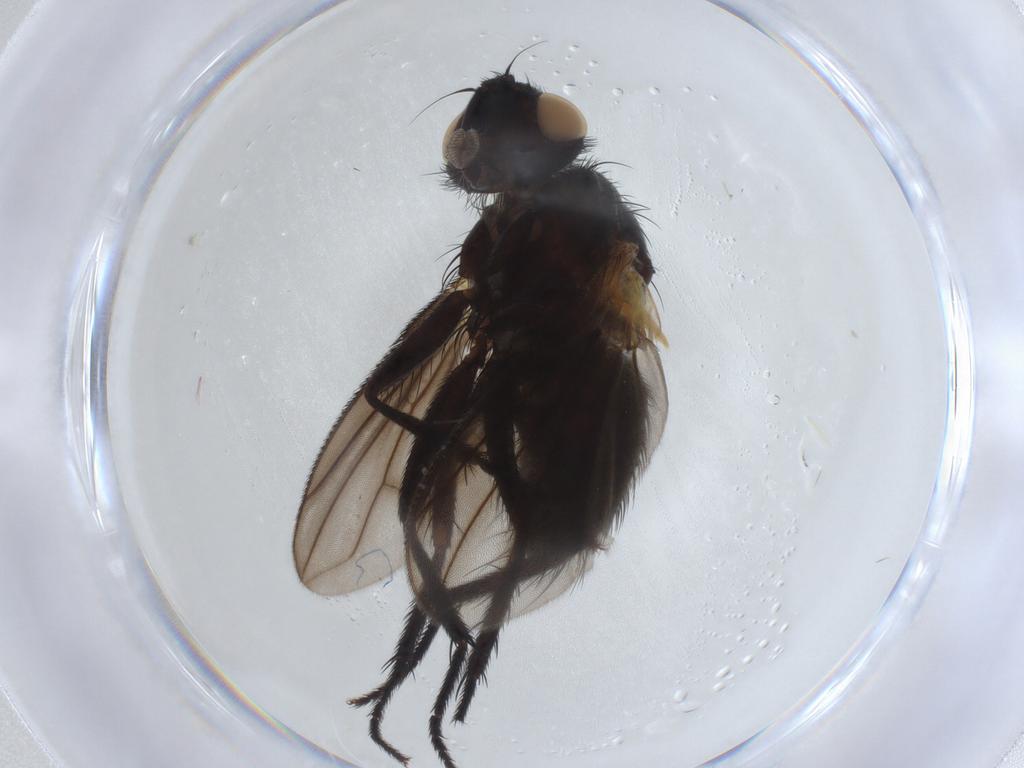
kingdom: Animalia
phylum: Arthropoda
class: Insecta
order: Diptera
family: Tachinidae
